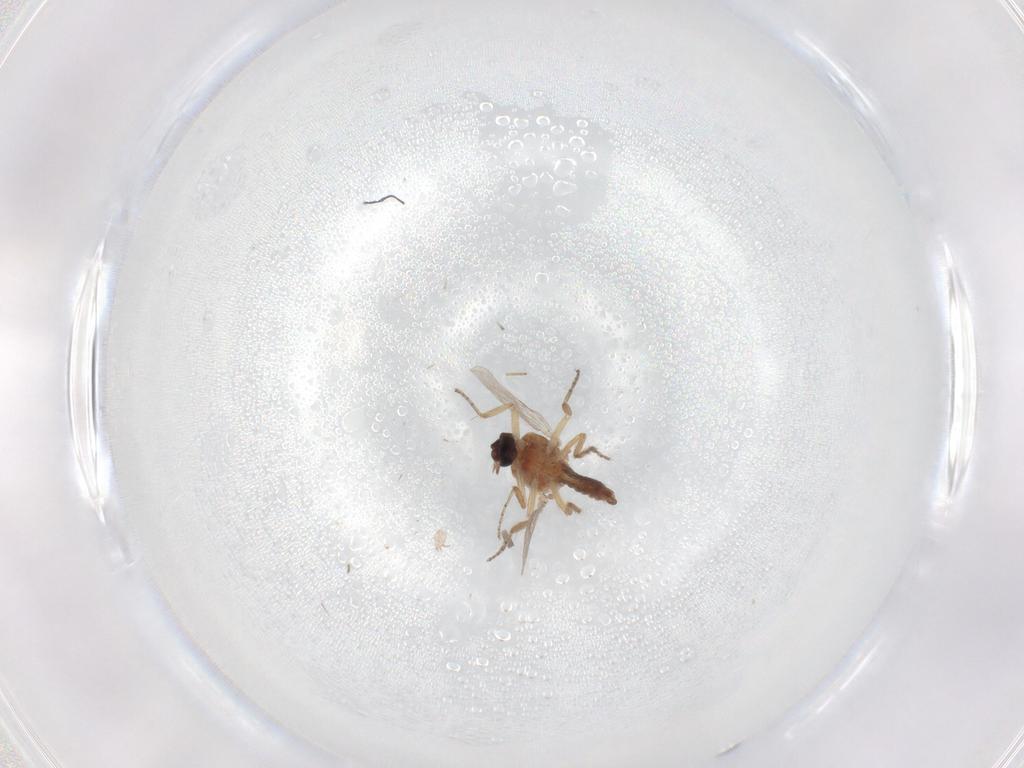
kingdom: Animalia
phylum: Arthropoda
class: Insecta
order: Diptera
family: Ceratopogonidae
